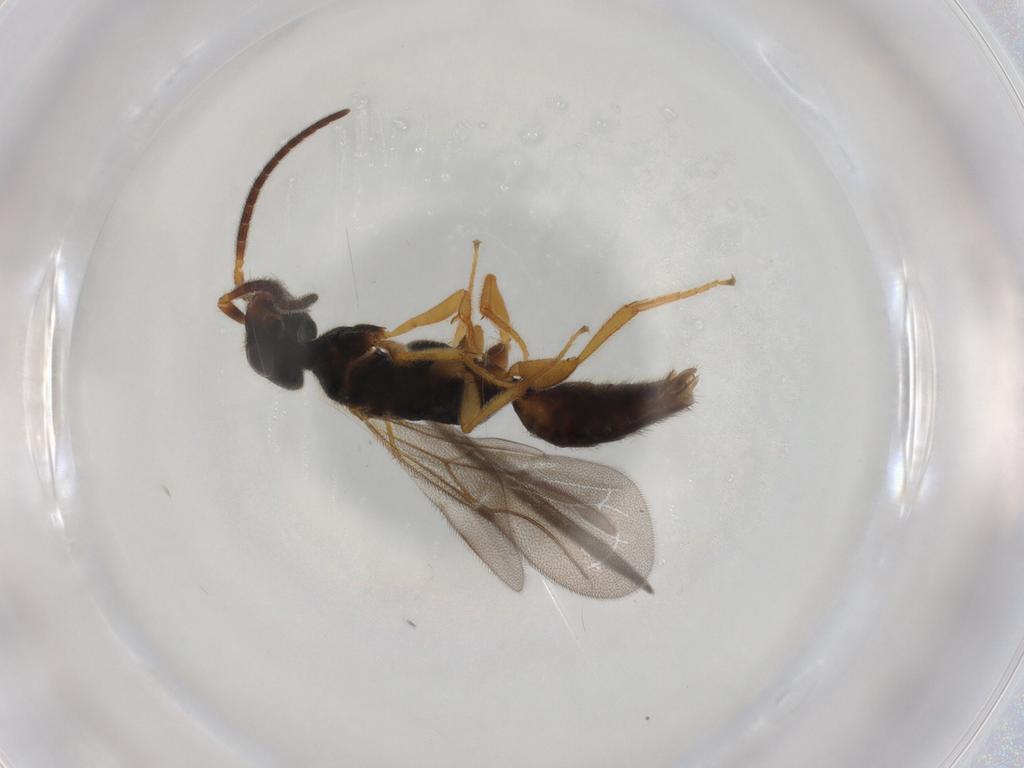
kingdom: Animalia
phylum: Arthropoda
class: Insecta
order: Hymenoptera
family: Bethylidae
